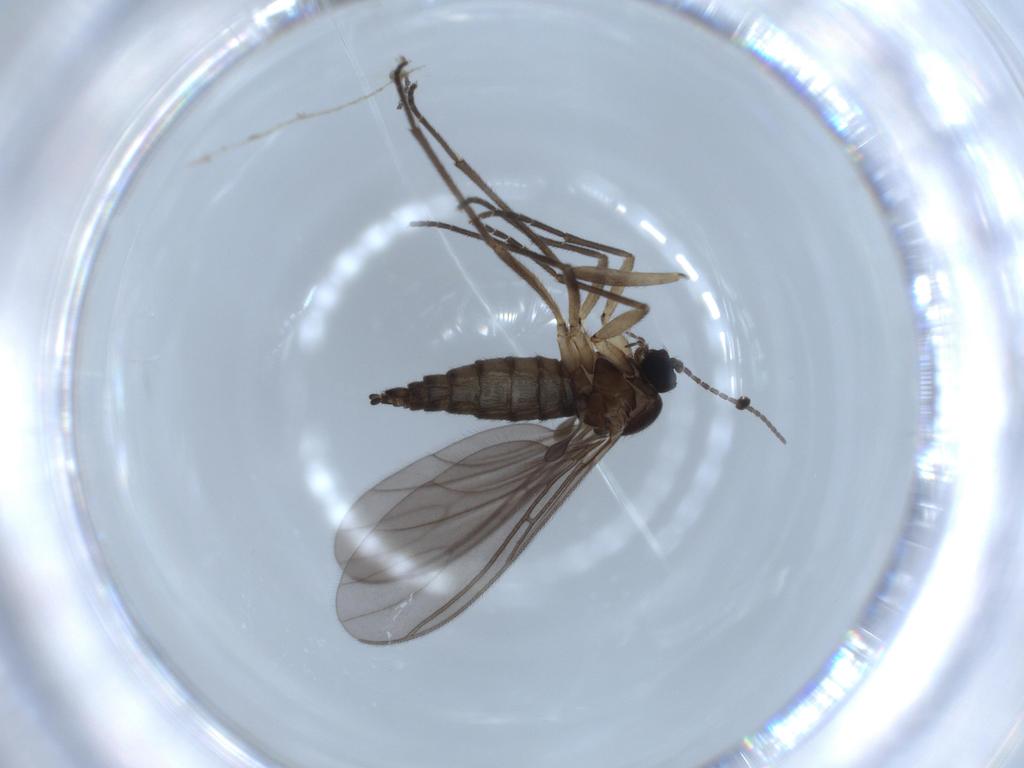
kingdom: Animalia
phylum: Arthropoda
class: Insecta
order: Diptera
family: Sciaridae
